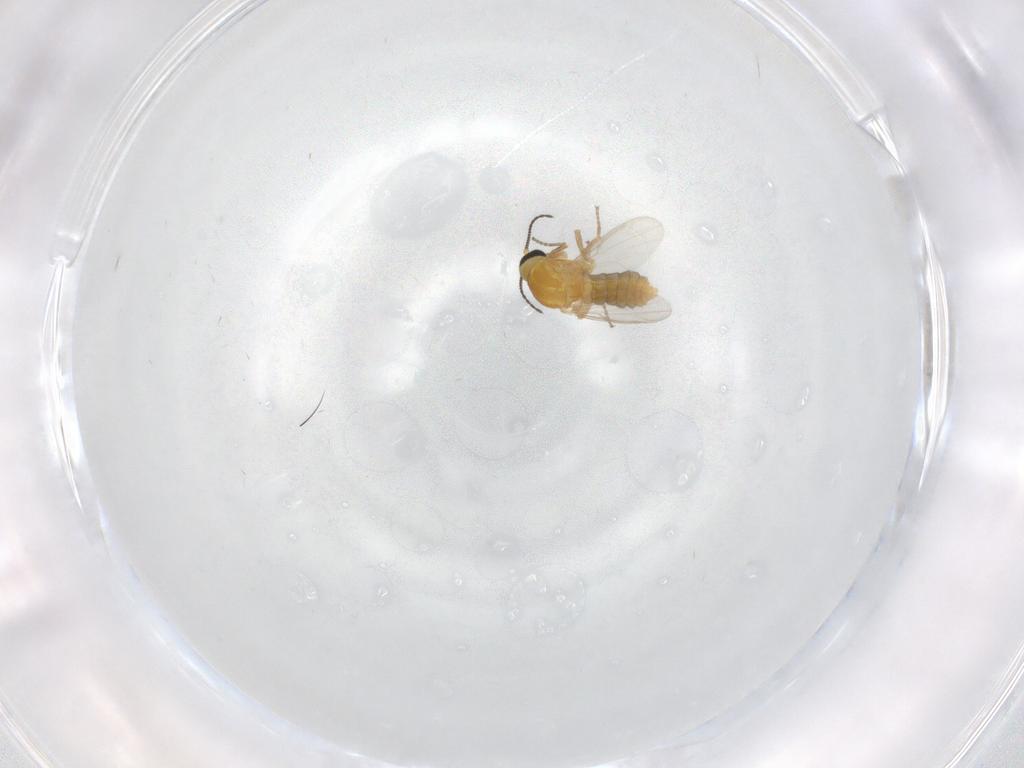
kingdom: Animalia
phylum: Arthropoda
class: Insecta
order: Diptera
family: Ceratopogonidae
